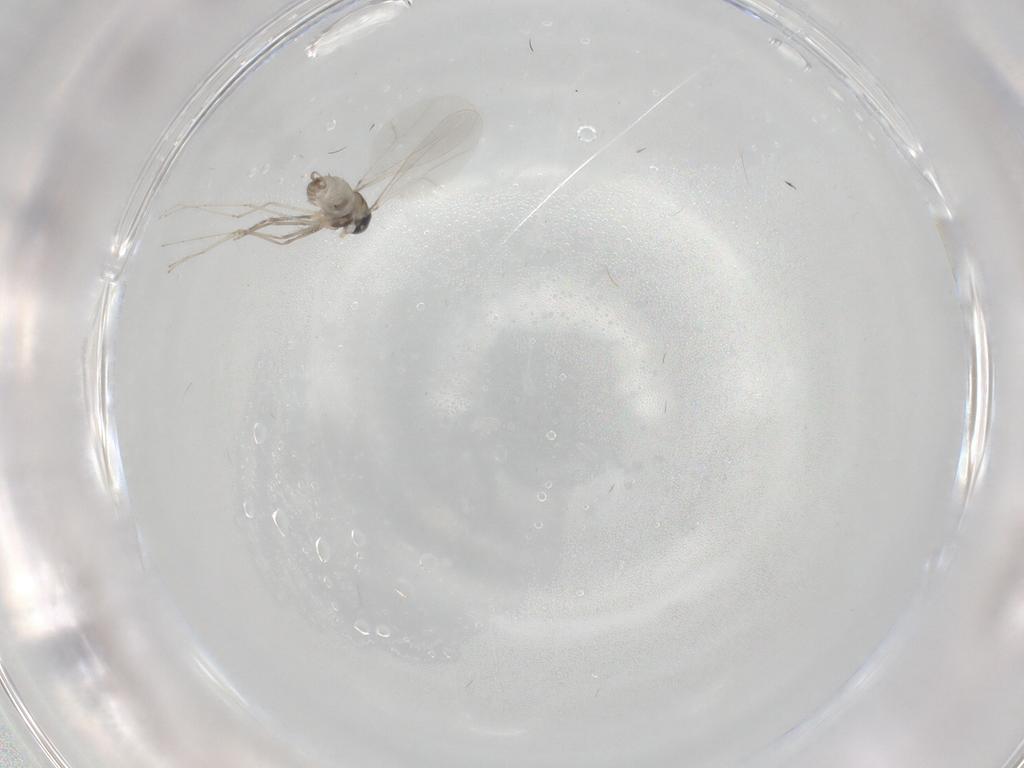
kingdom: Animalia
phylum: Arthropoda
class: Insecta
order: Diptera
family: Cecidomyiidae
